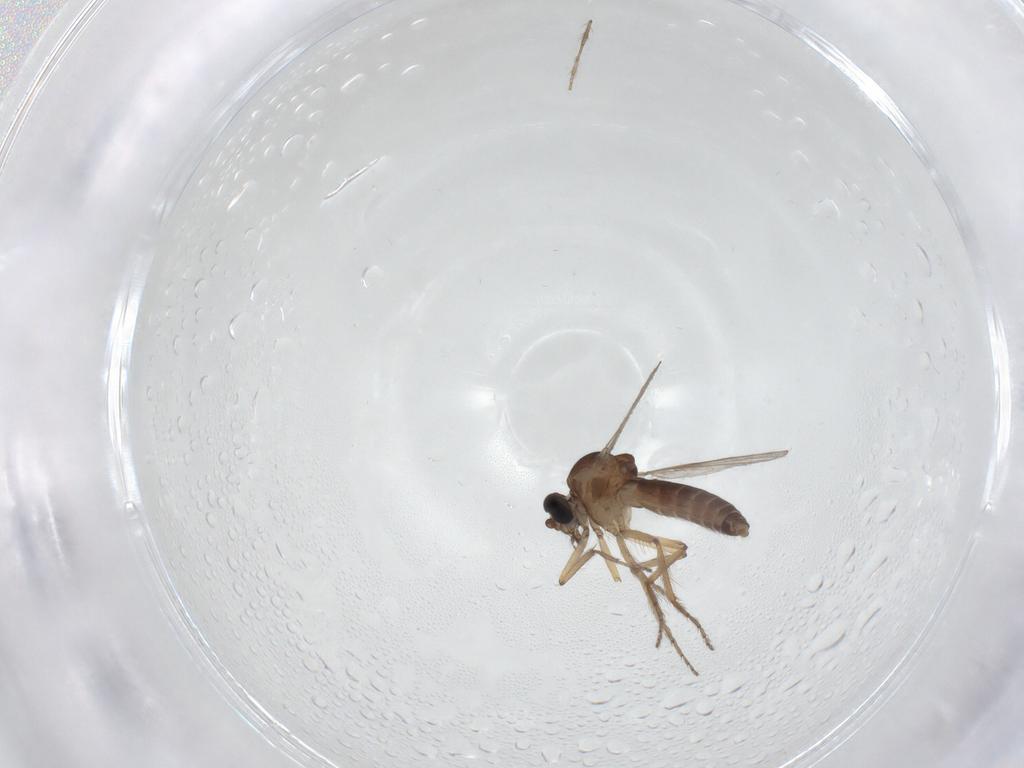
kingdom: Animalia
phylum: Arthropoda
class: Insecta
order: Diptera
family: Ceratopogonidae
